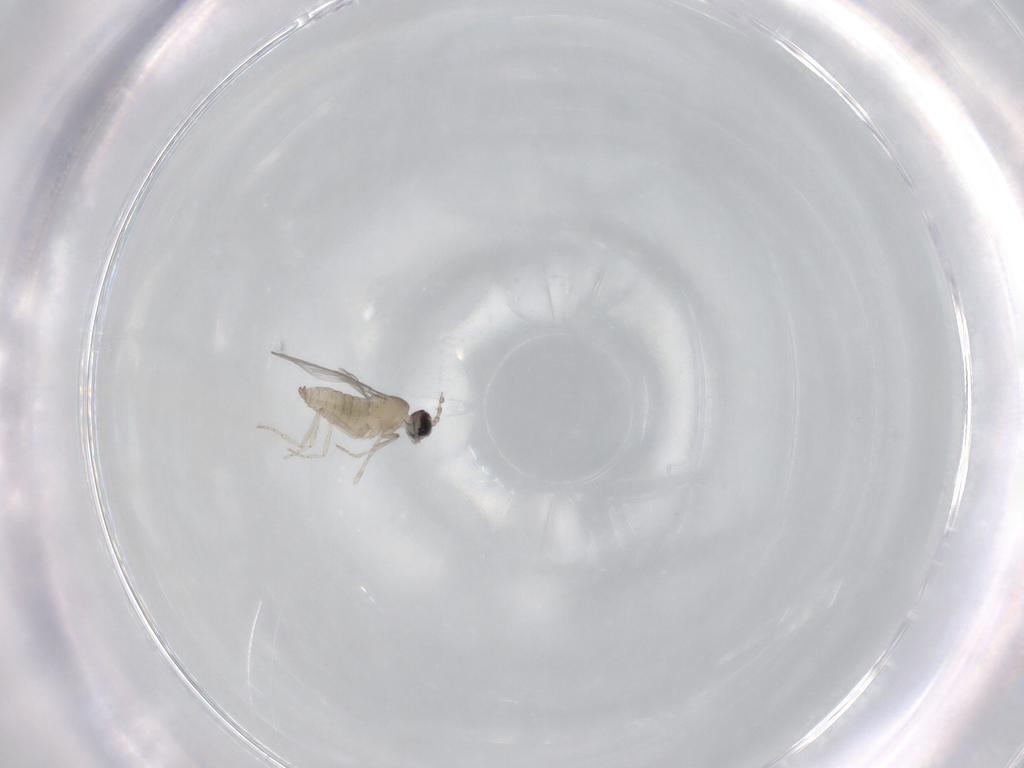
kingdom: Animalia
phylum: Arthropoda
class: Insecta
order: Diptera
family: Cecidomyiidae
